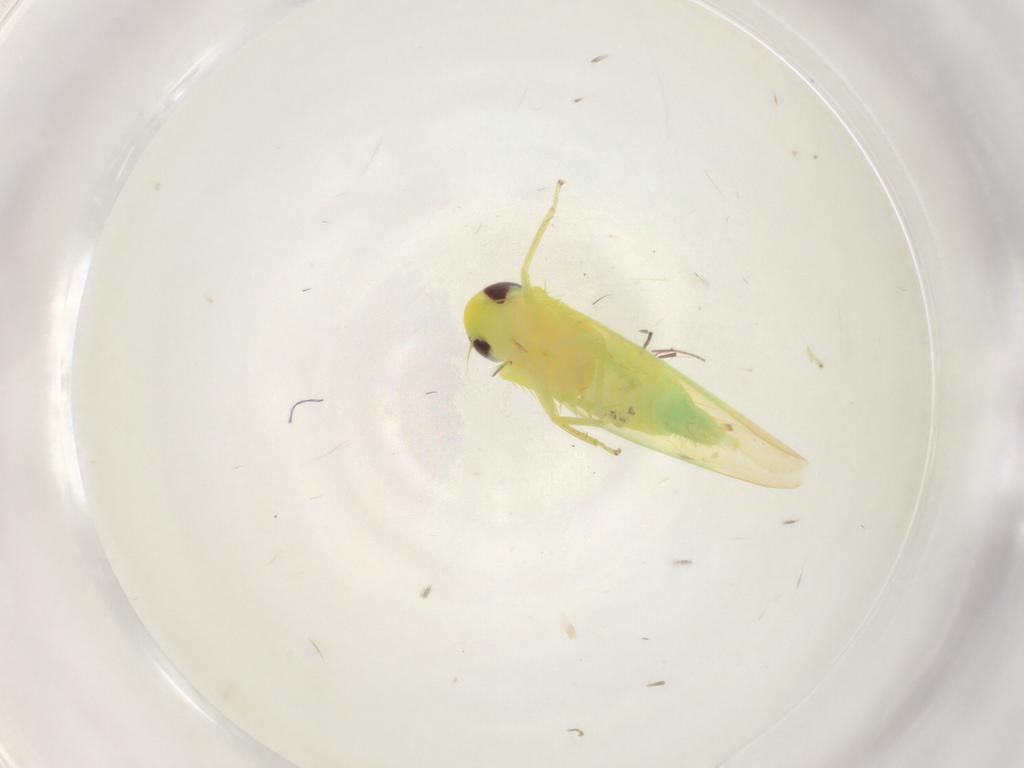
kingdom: Animalia
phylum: Arthropoda
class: Insecta
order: Hemiptera
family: Cicadellidae
